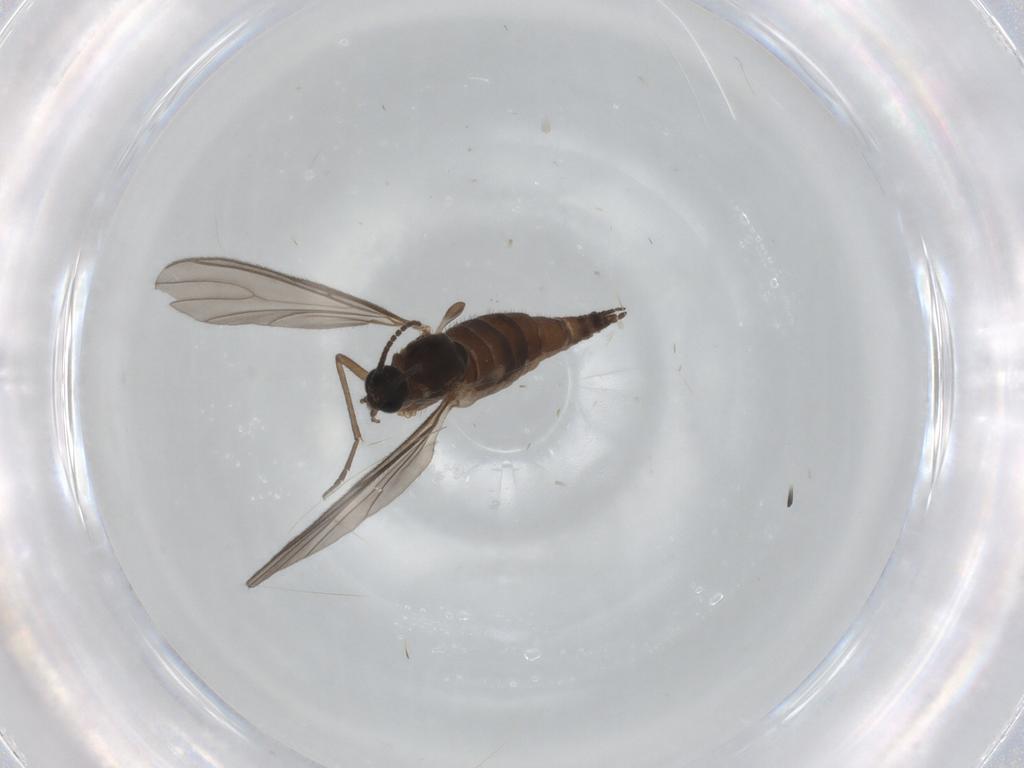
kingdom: Animalia
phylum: Arthropoda
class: Insecta
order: Diptera
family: Sciaridae
